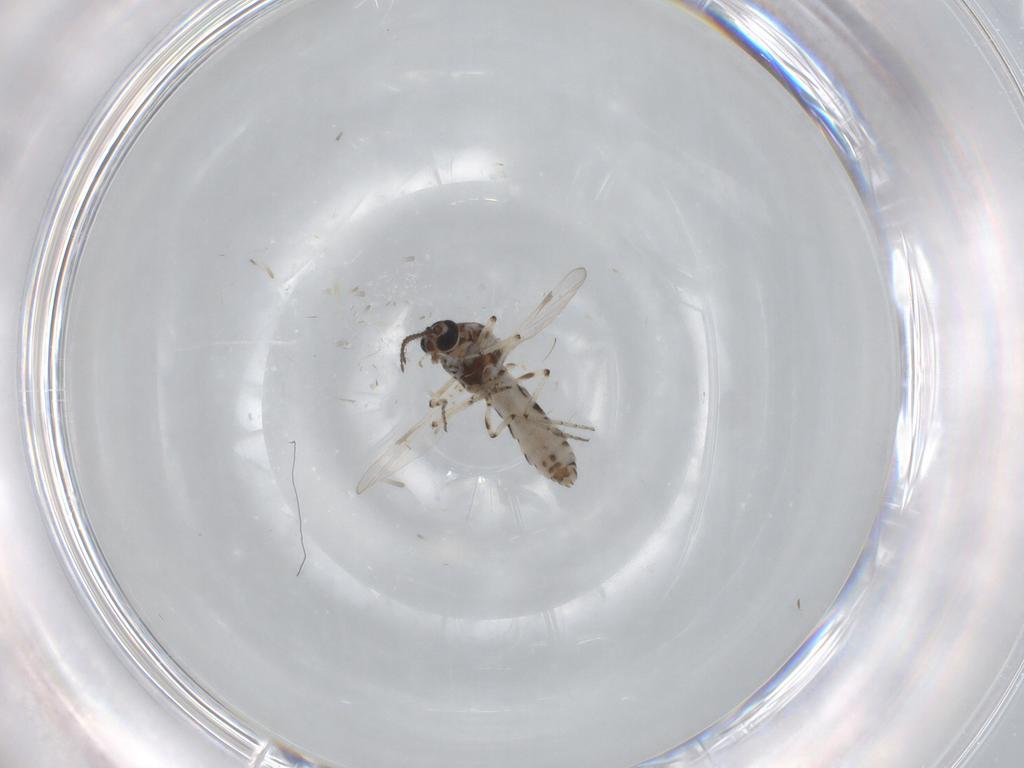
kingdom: Animalia
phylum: Arthropoda
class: Insecta
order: Diptera
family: Ceratopogonidae
